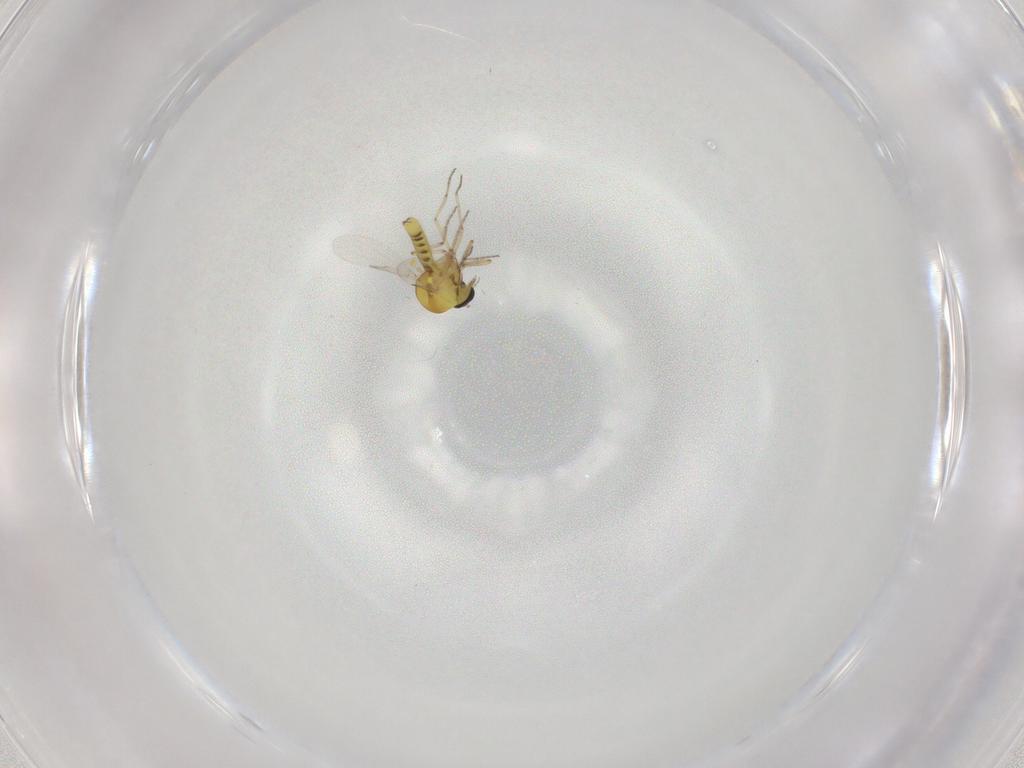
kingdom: Animalia
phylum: Arthropoda
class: Insecta
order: Diptera
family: Ceratopogonidae
